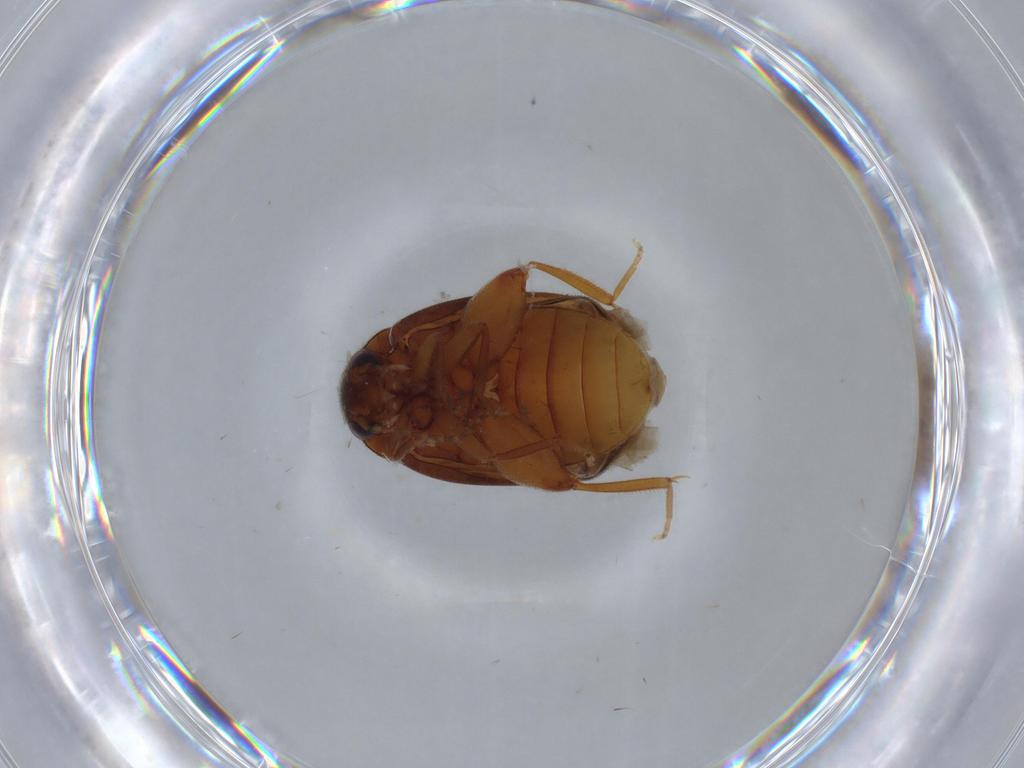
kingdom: Animalia
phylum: Arthropoda
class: Insecta
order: Coleoptera
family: Scirtidae
